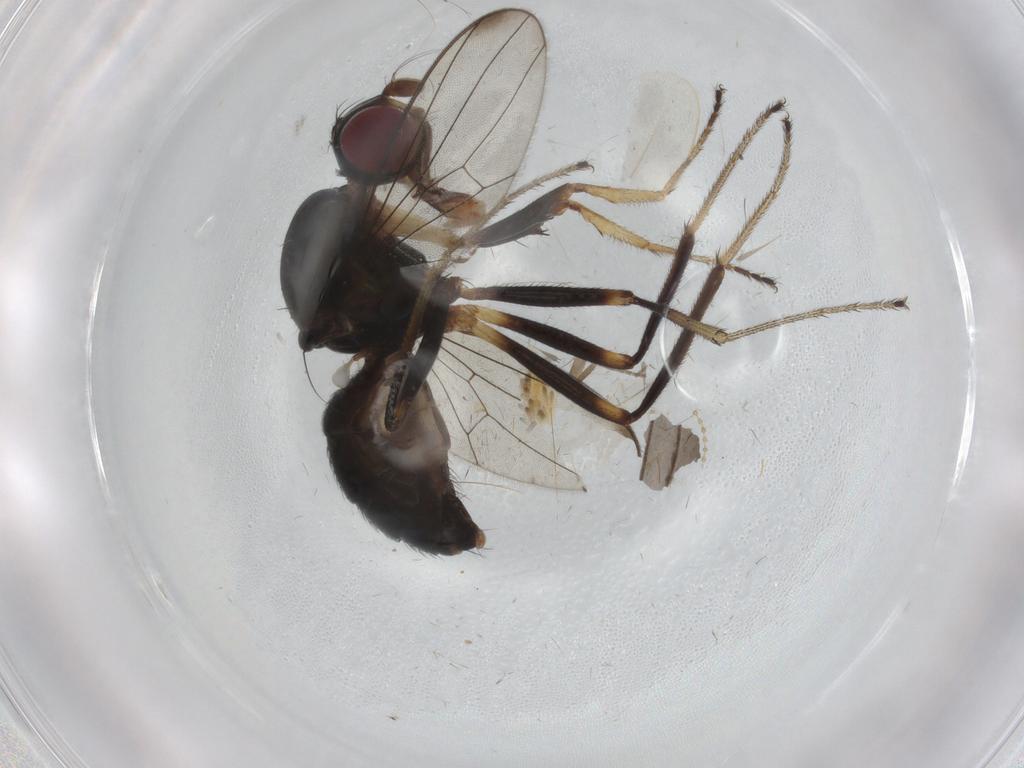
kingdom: Animalia
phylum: Arthropoda
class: Insecta
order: Diptera
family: Sepsidae
